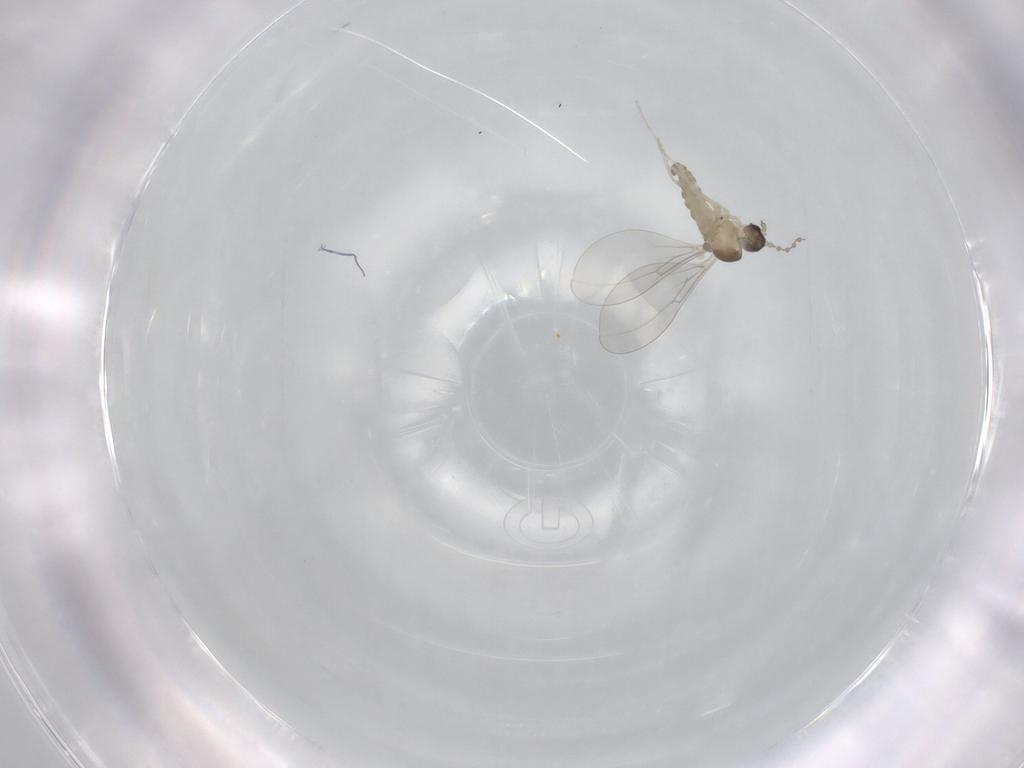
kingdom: Animalia
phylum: Arthropoda
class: Insecta
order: Diptera
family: Cecidomyiidae
